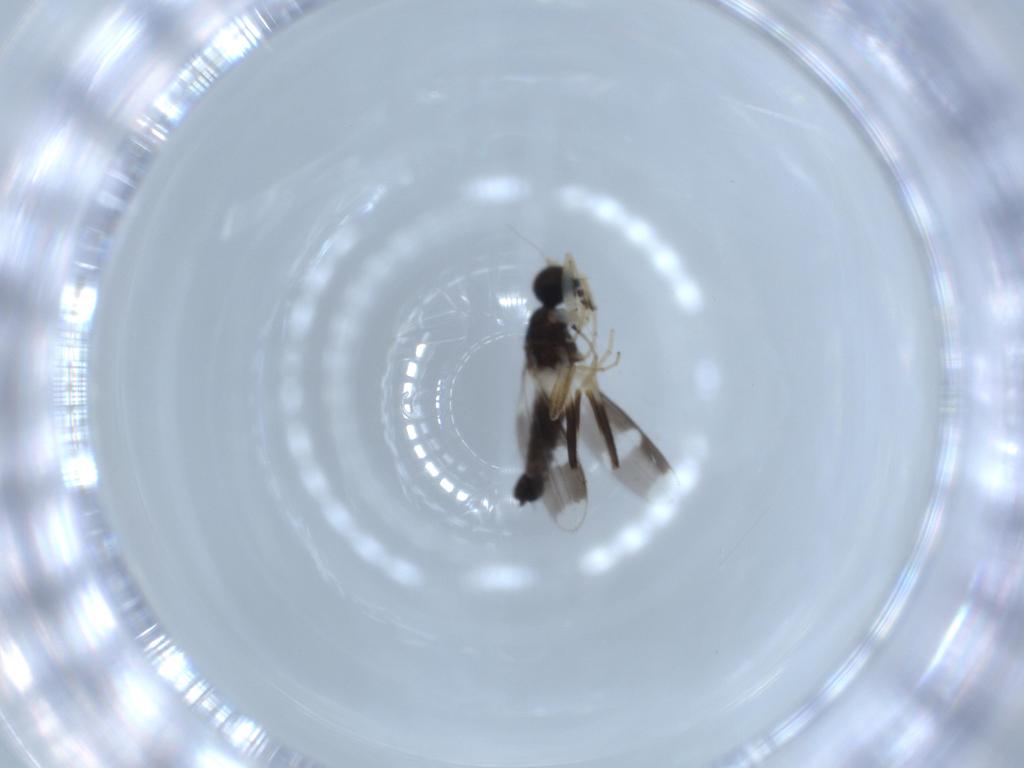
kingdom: Animalia
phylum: Arthropoda
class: Insecta
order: Diptera
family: Hybotidae
